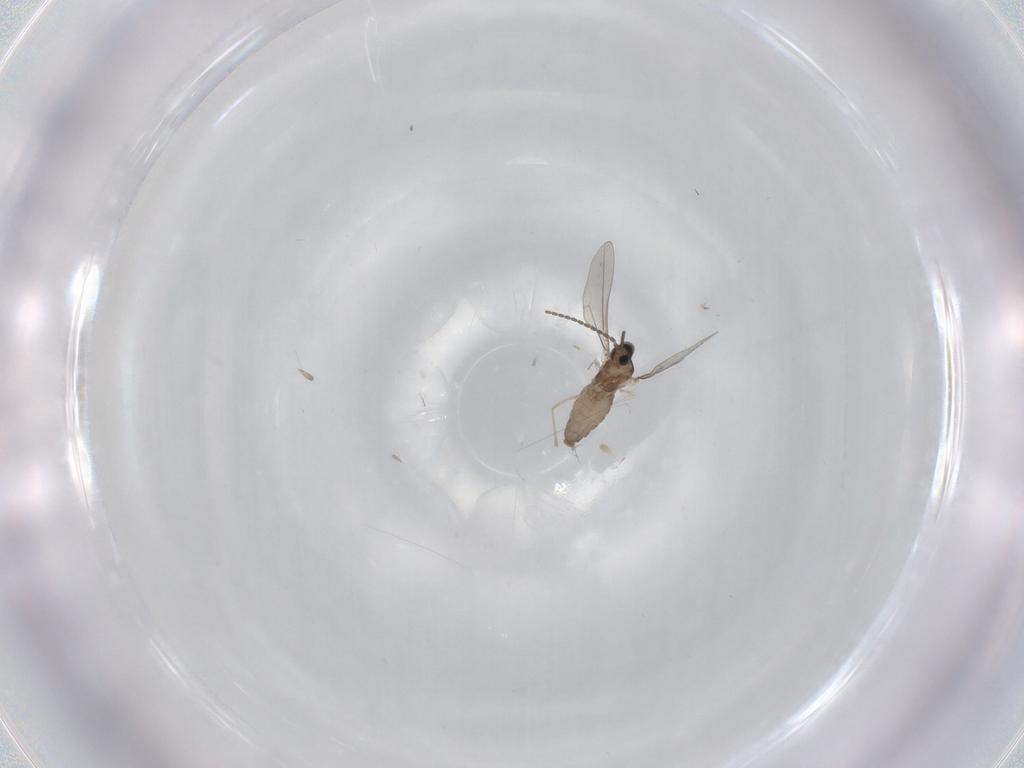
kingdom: Animalia
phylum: Arthropoda
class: Insecta
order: Diptera
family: Cecidomyiidae
